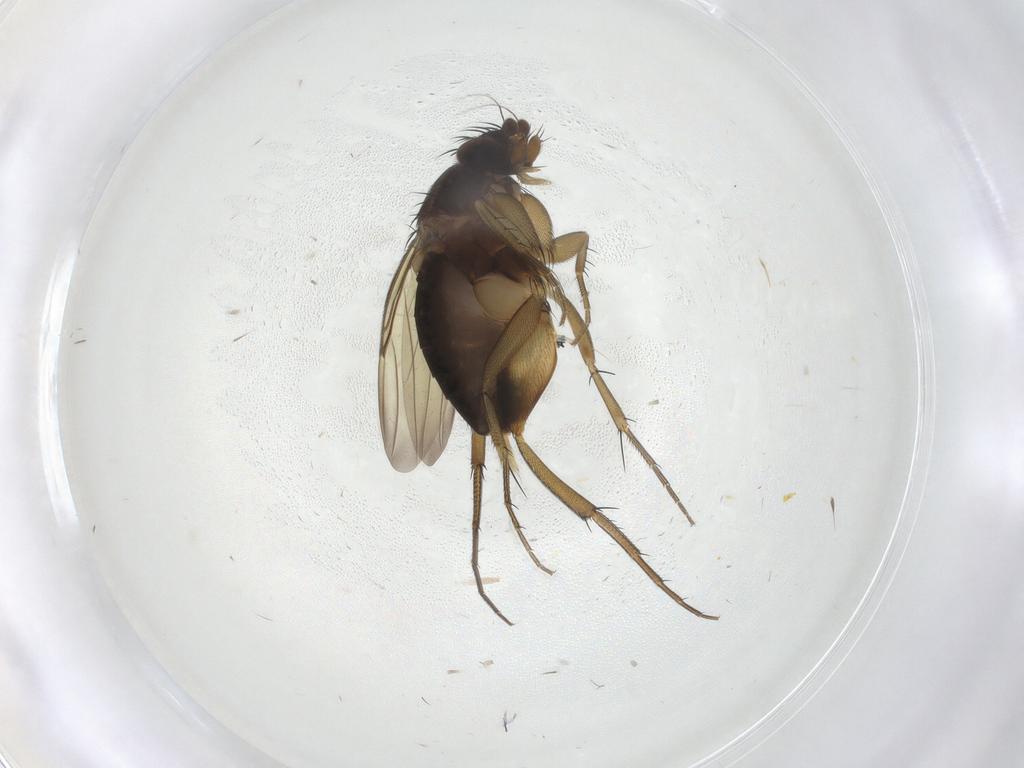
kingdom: Animalia
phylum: Arthropoda
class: Insecta
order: Diptera
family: Phoridae
